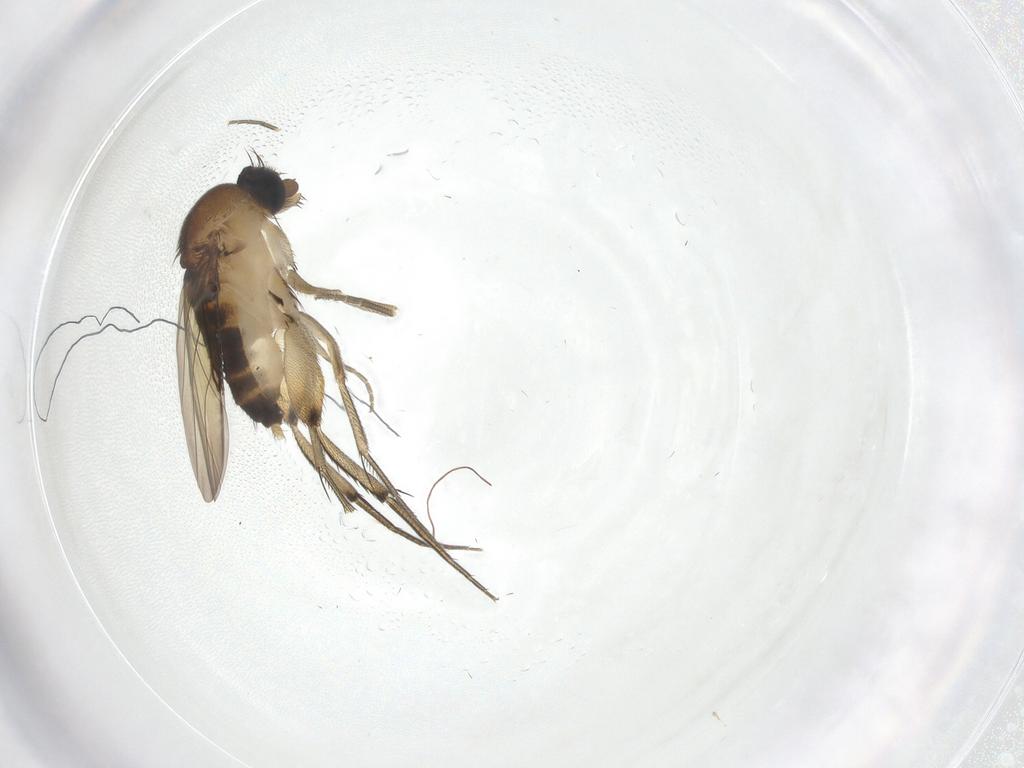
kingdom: Animalia
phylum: Arthropoda
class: Insecta
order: Diptera
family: Phoridae
